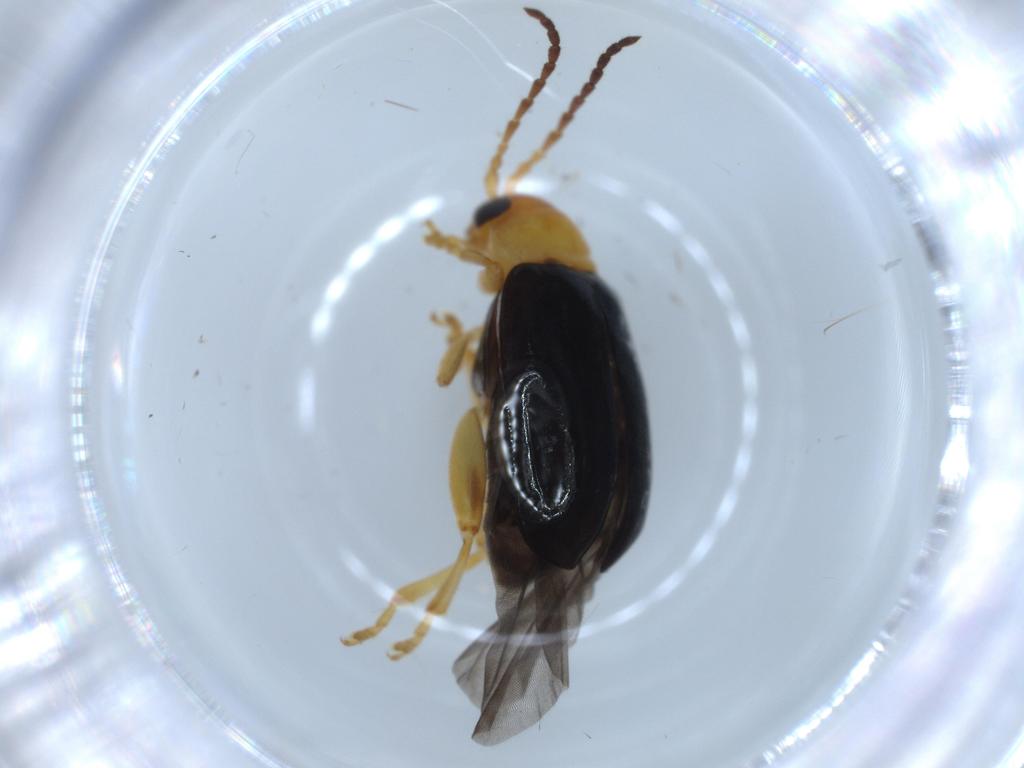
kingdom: Animalia
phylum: Arthropoda
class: Insecta
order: Coleoptera
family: Chrysomelidae
